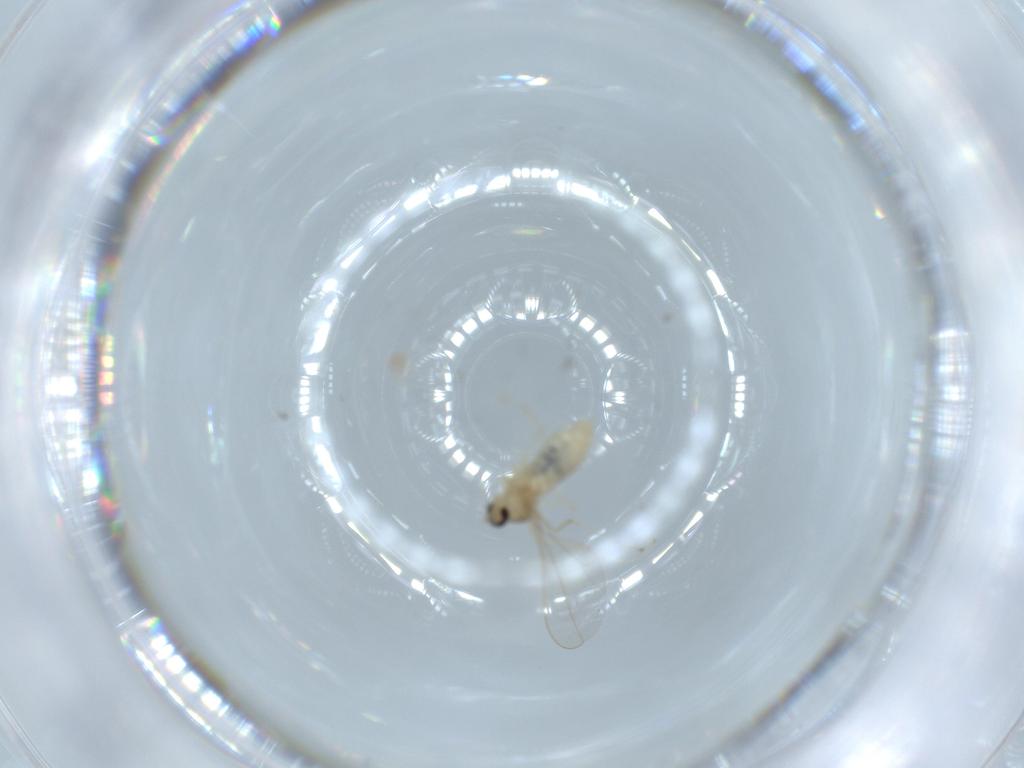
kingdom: Animalia
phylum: Arthropoda
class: Insecta
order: Diptera
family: Cecidomyiidae
